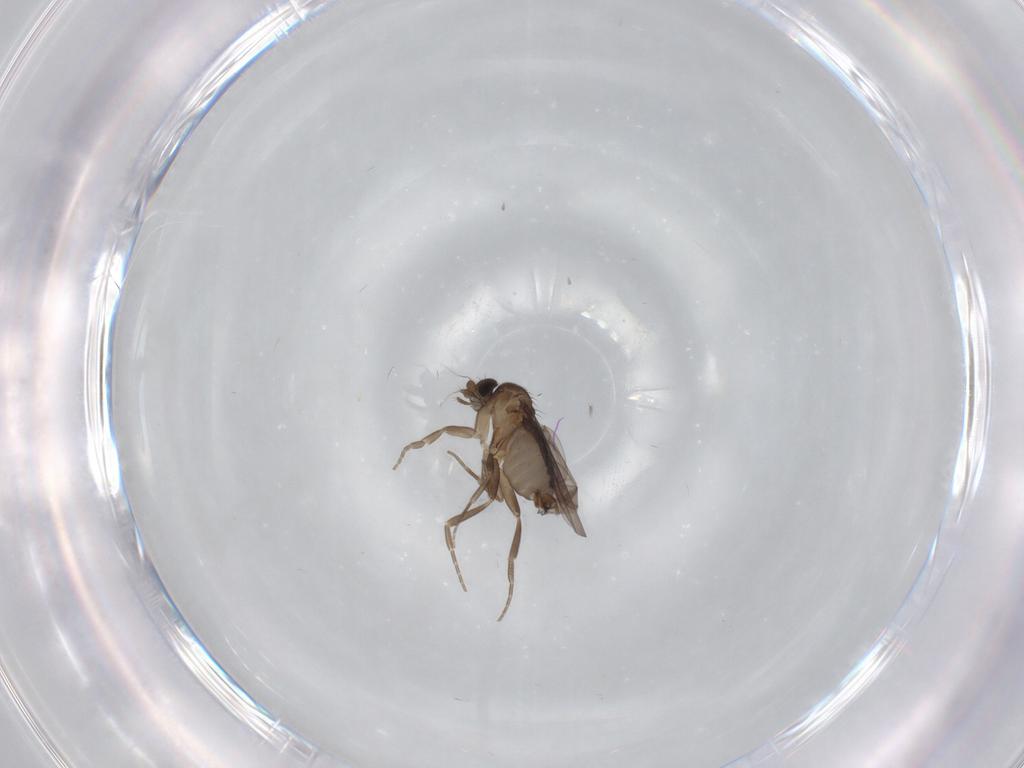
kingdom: Animalia
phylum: Arthropoda
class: Insecta
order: Diptera
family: Phoridae
